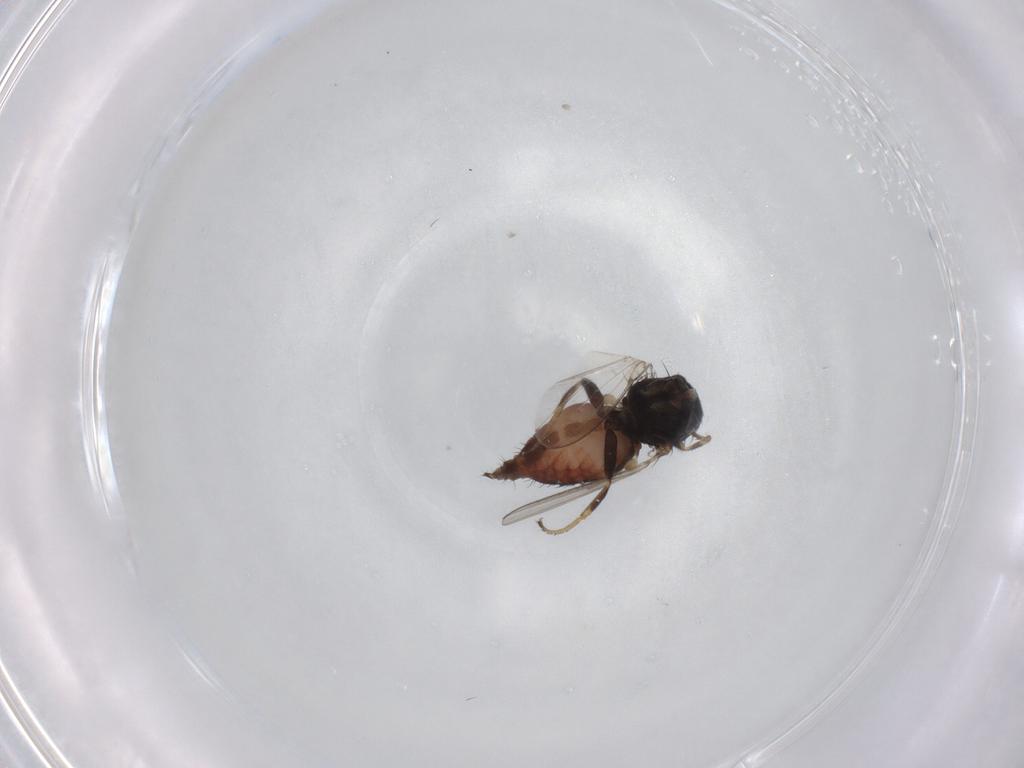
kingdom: Animalia
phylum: Arthropoda
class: Insecta
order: Diptera
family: Milichiidae
